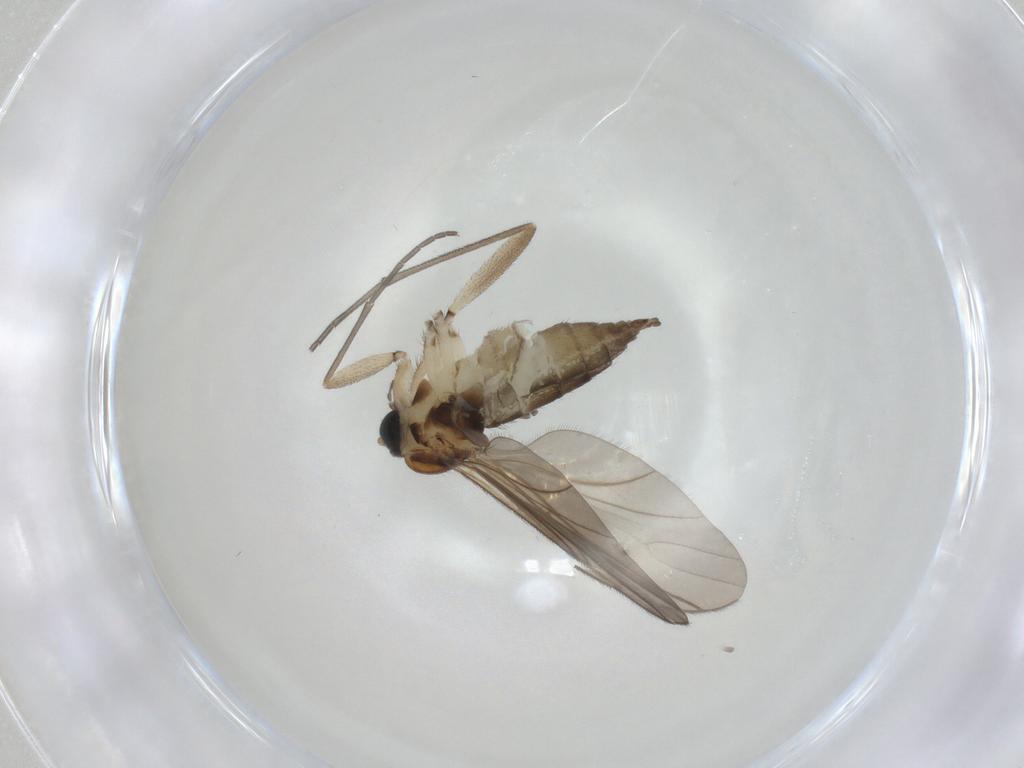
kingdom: Animalia
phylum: Arthropoda
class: Insecta
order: Diptera
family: Sciaridae
